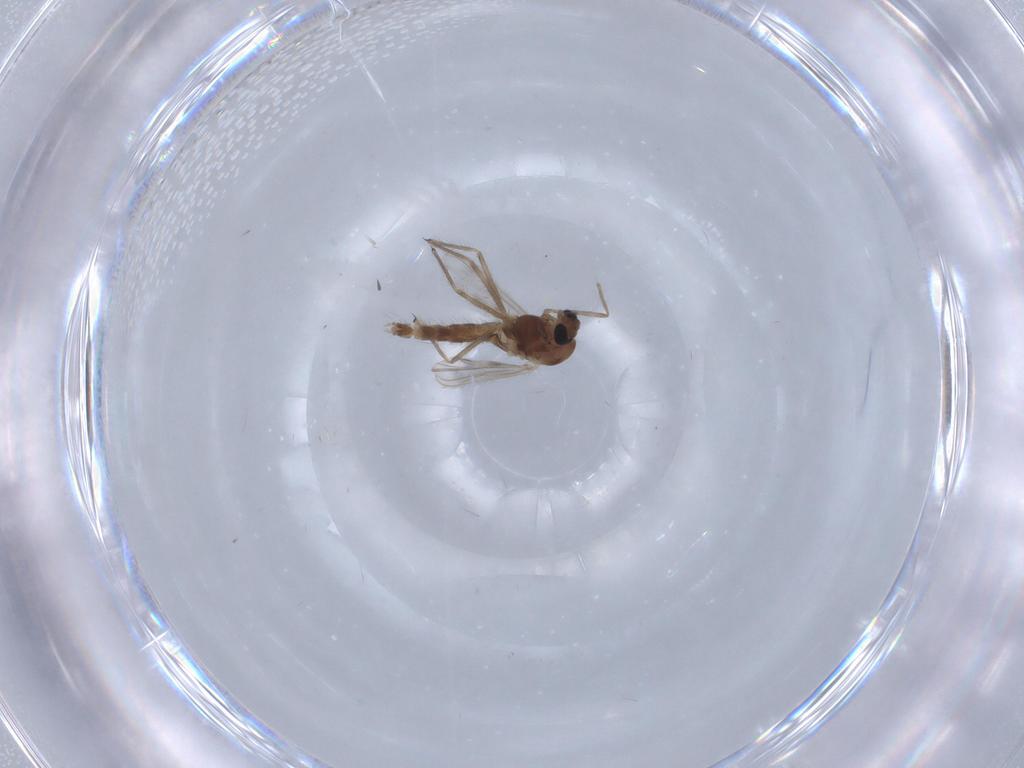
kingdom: Animalia
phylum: Arthropoda
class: Insecta
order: Diptera
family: Chironomidae
